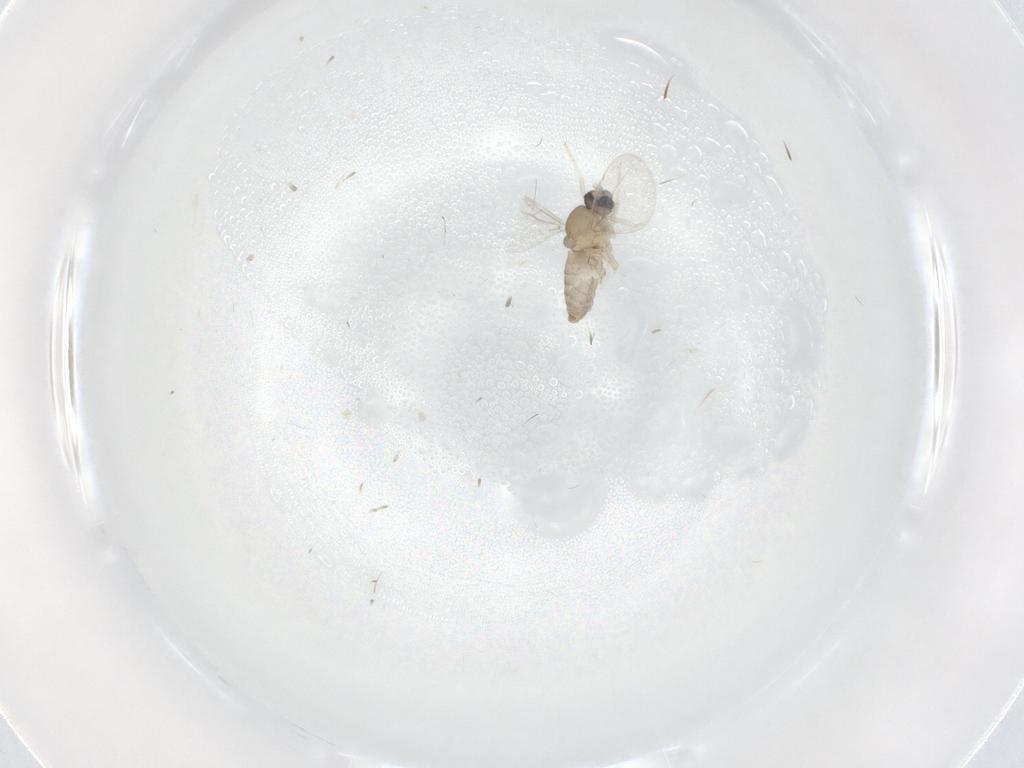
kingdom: Animalia
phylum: Arthropoda
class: Insecta
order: Diptera
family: Cecidomyiidae
